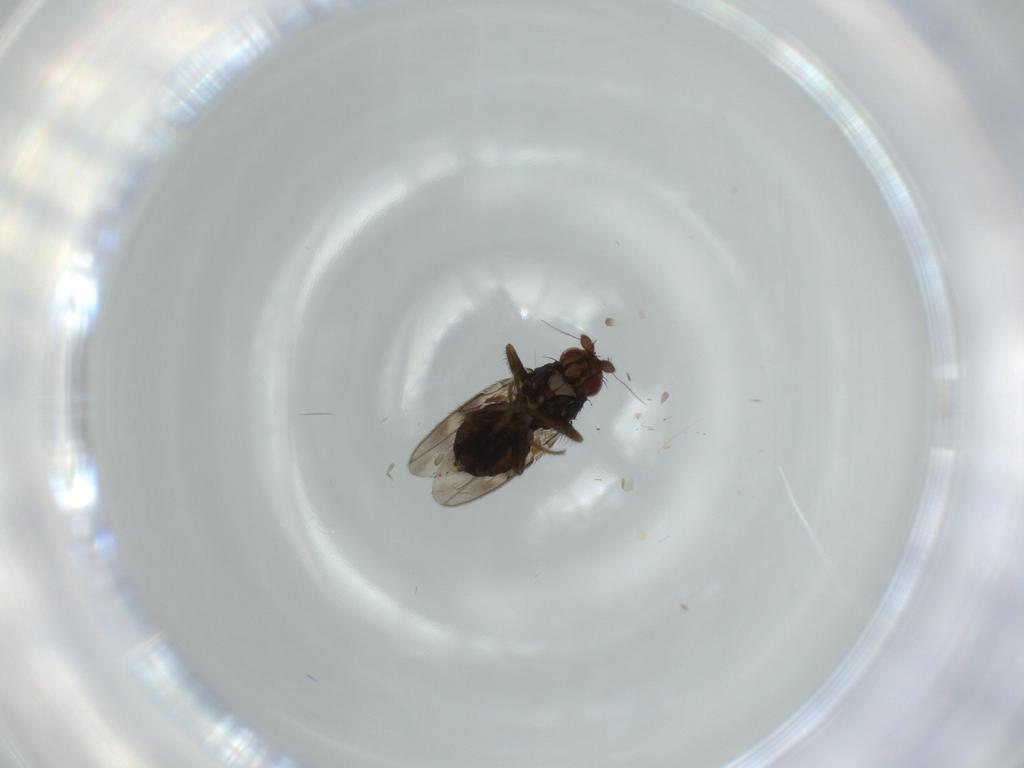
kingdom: Animalia
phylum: Arthropoda
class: Insecta
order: Diptera
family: Sphaeroceridae
